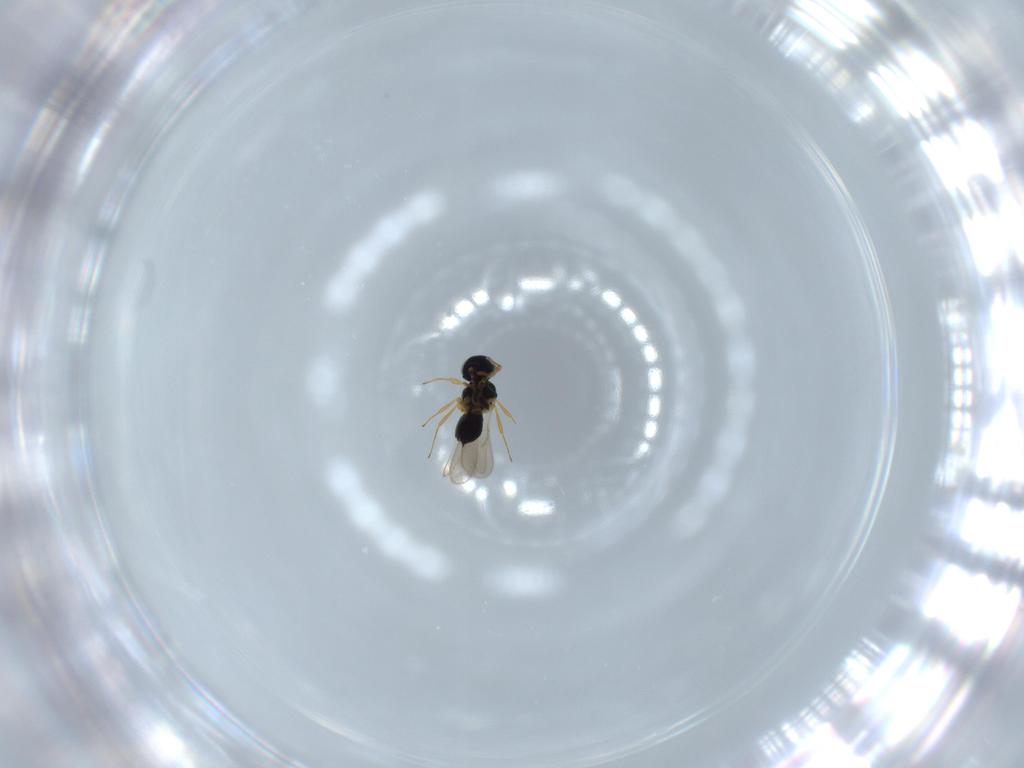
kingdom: Animalia
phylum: Arthropoda
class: Insecta
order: Hymenoptera
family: Scelionidae
